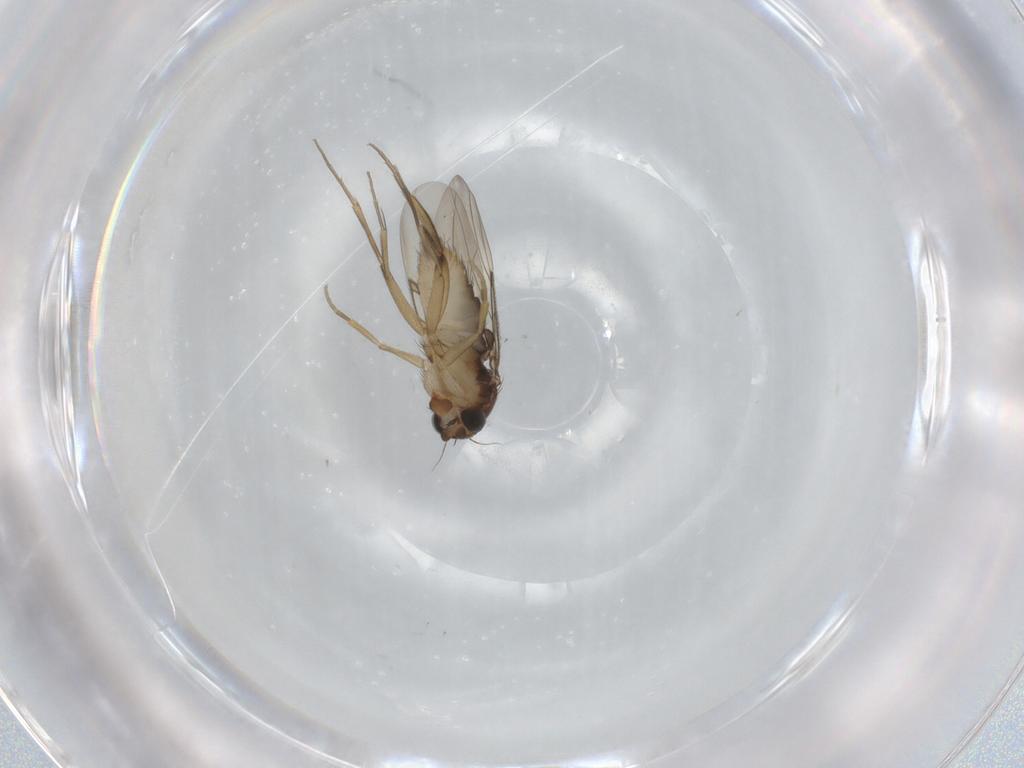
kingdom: Animalia
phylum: Arthropoda
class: Insecta
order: Diptera
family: Phoridae
